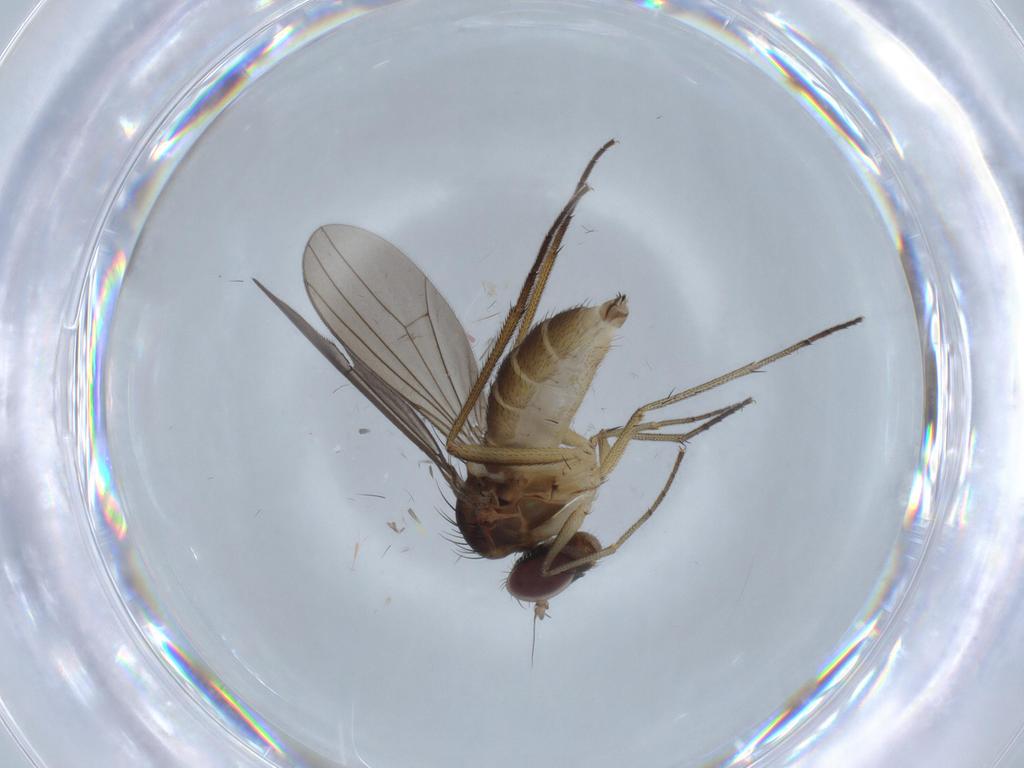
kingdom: Animalia
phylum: Arthropoda
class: Insecta
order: Diptera
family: Dolichopodidae
